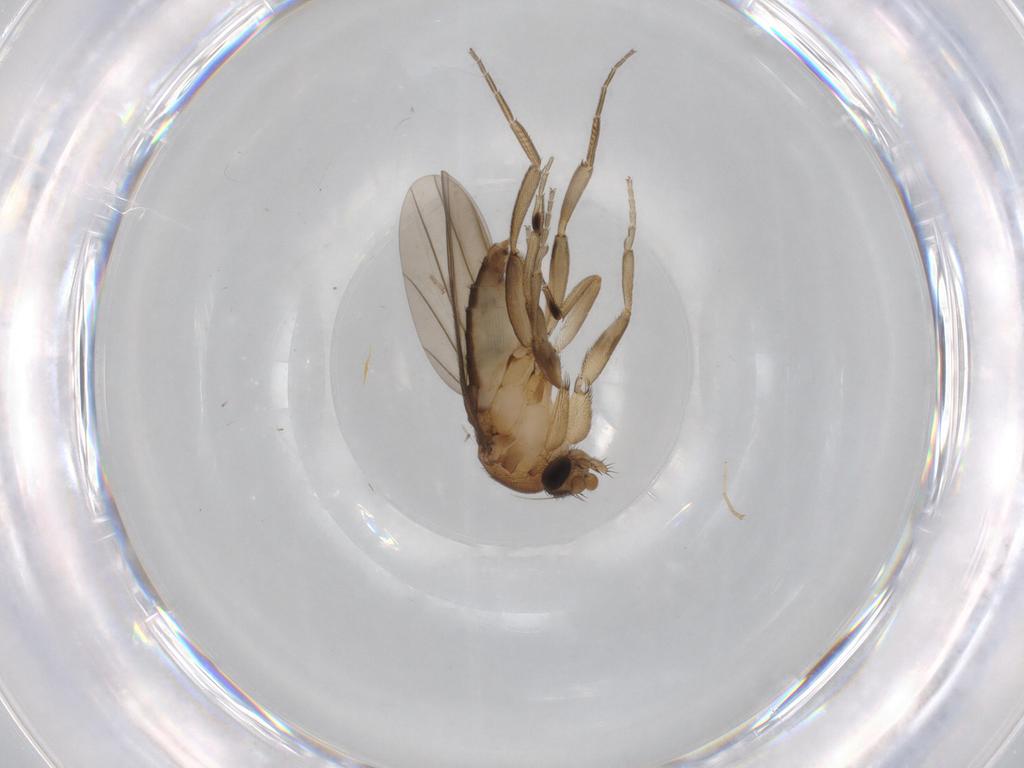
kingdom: Animalia
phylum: Arthropoda
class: Insecta
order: Diptera
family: Cecidomyiidae
